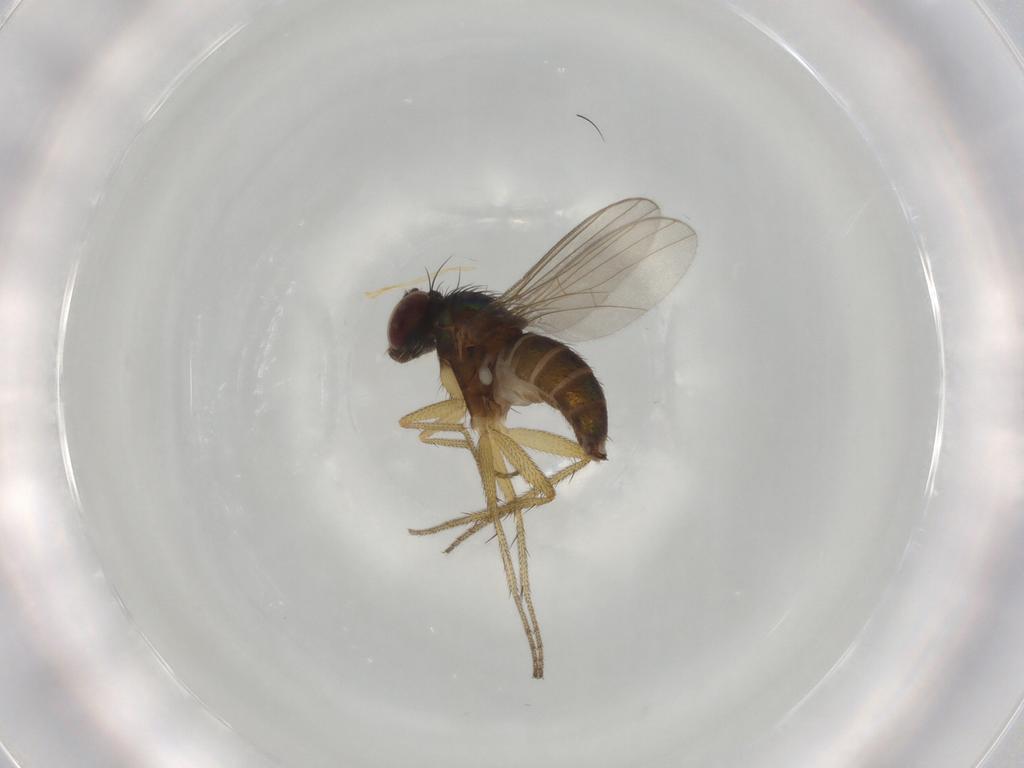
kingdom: Animalia
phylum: Arthropoda
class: Insecta
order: Diptera
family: Dolichopodidae
